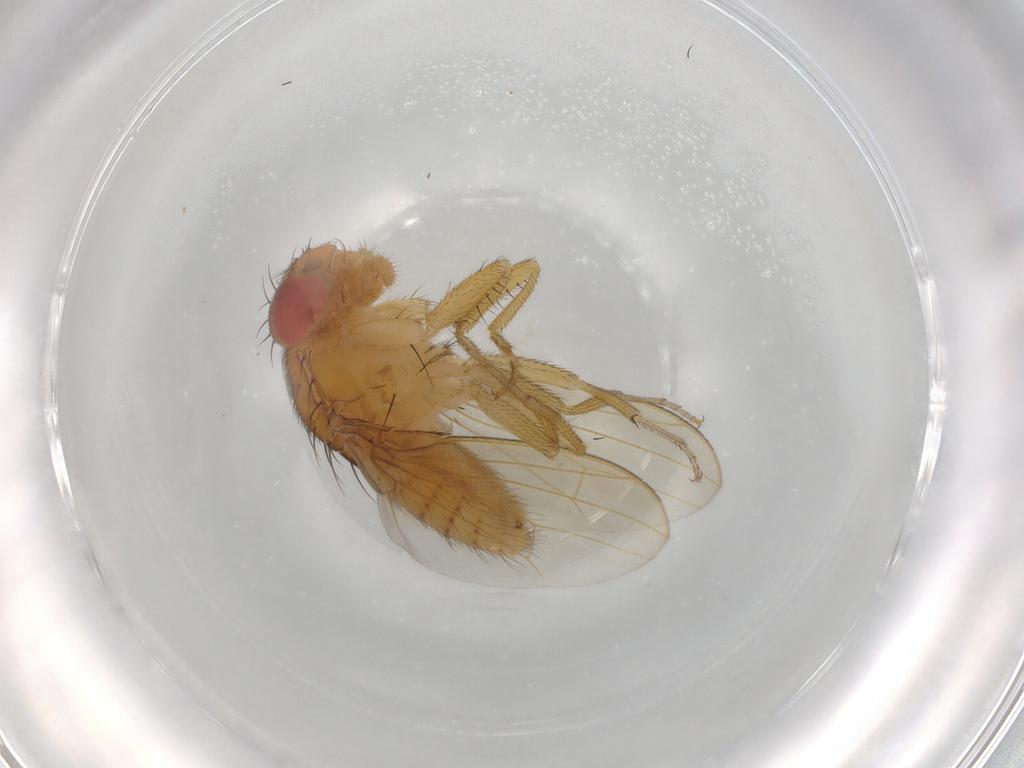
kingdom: Animalia
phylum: Arthropoda
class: Insecta
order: Diptera
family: Drosophilidae
